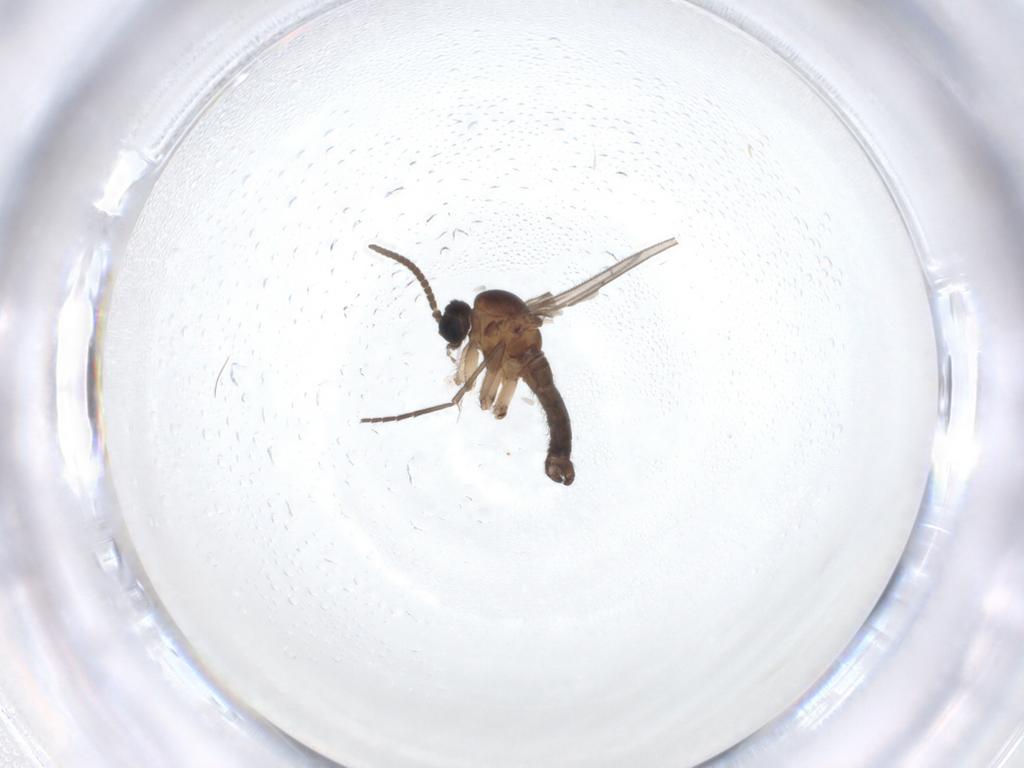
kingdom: Animalia
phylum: Arthropoda
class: Insecta
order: Diptera
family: Sciaridae
